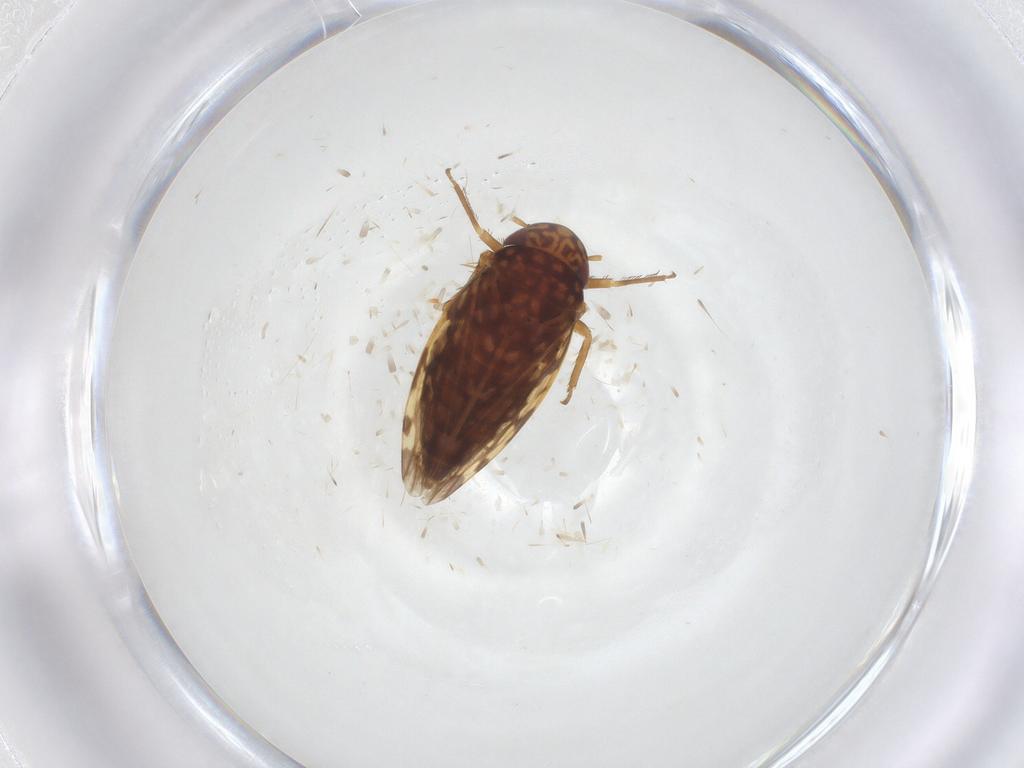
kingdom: Animalia
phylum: Arthropoda
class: Insecta
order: Hemiptera
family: Cicadellidae
